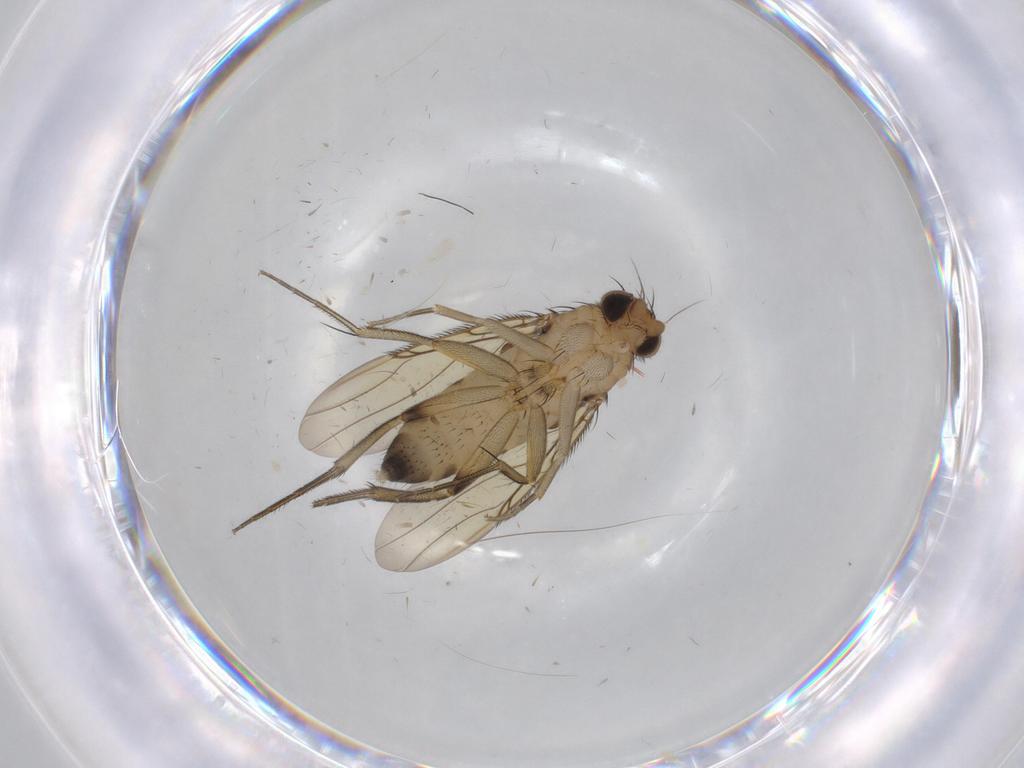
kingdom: Animalia
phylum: Arthropoda
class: Insecta
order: Diptera
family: Phoridae
